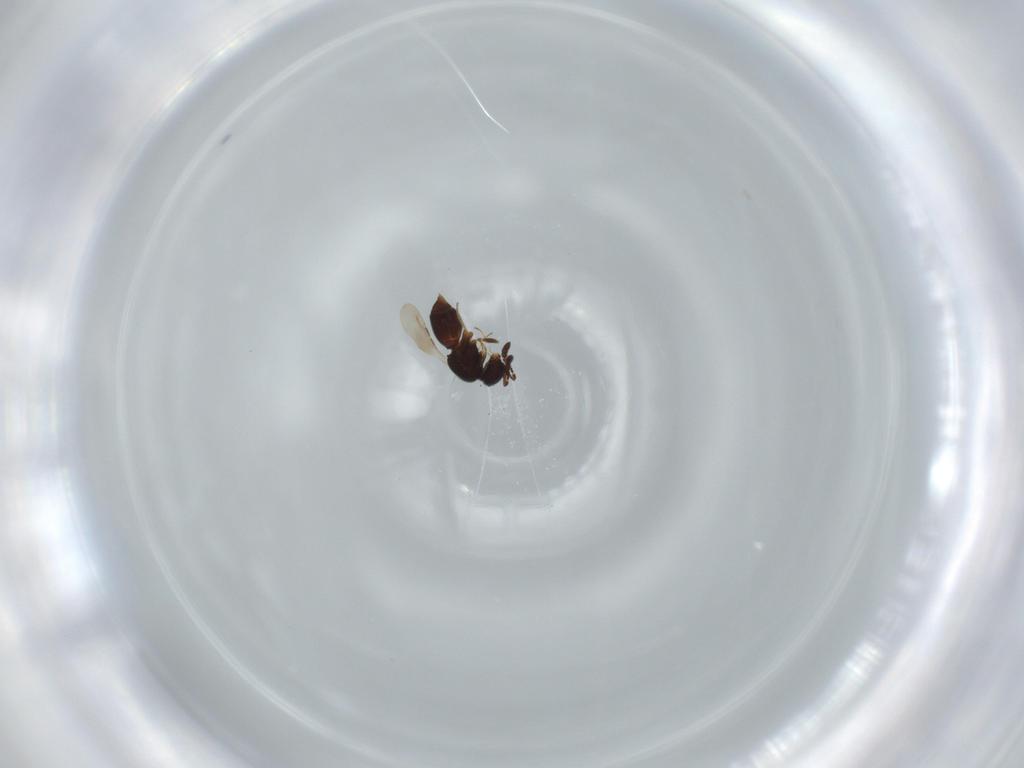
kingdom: Animalia
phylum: Arthropoda
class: Insecta
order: Hymenoptera
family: Ceraphronidae
